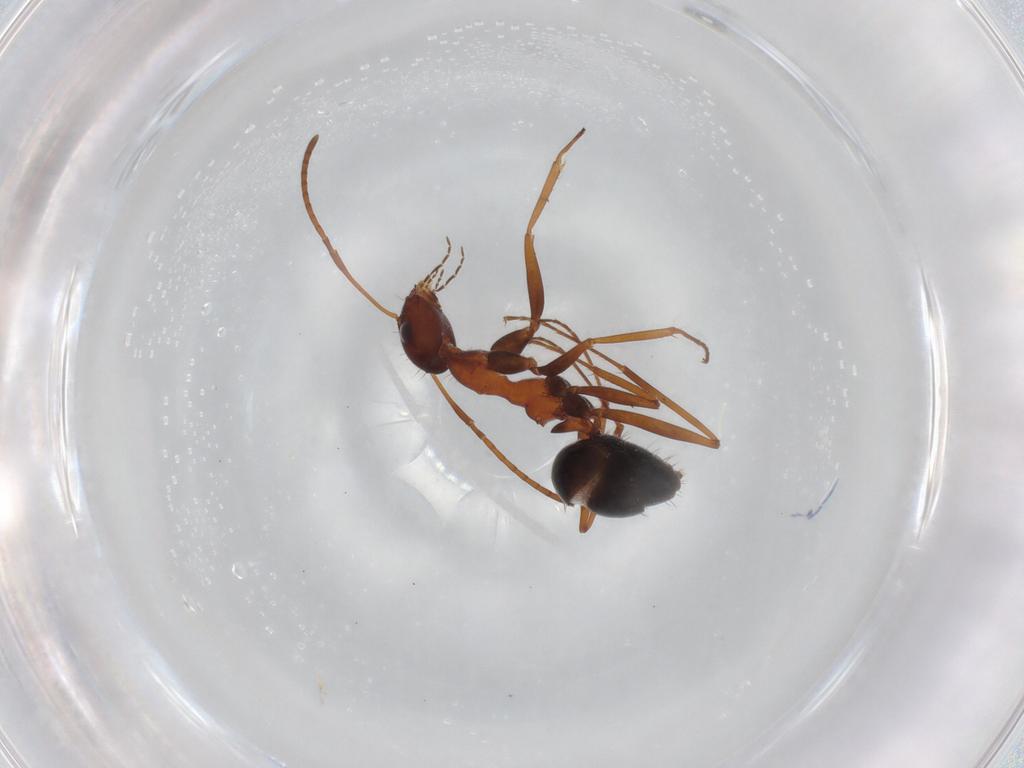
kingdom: Animalia
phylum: Arthropoda
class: Insecta
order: Hymenoptera
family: Formicidae
